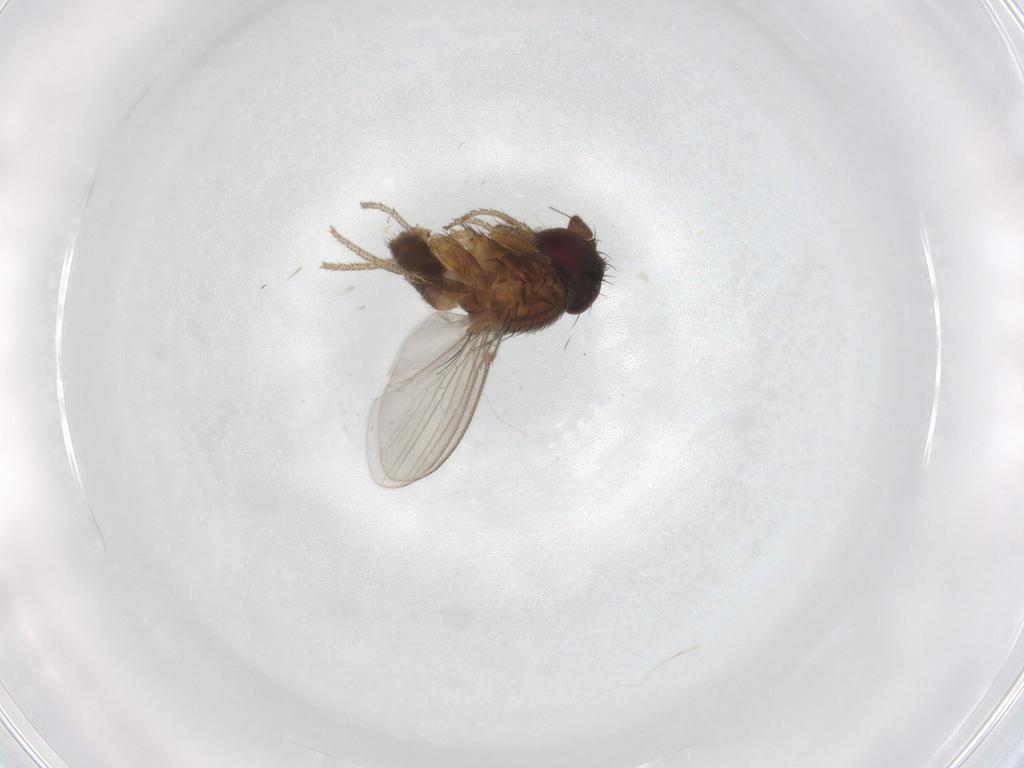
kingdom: Animalia
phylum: Arthropoda
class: Insecta
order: Diptera
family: Milichiidae
